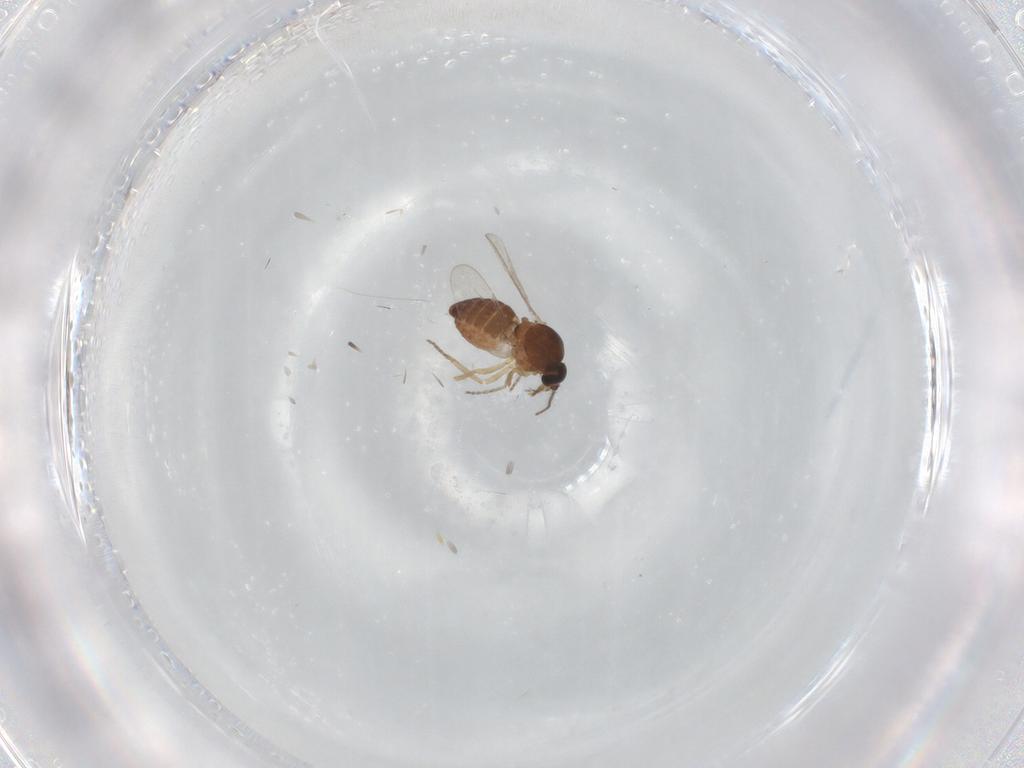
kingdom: Animalia
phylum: Arthropoda
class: Insecta
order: Diptera
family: Ceratopogonidae
